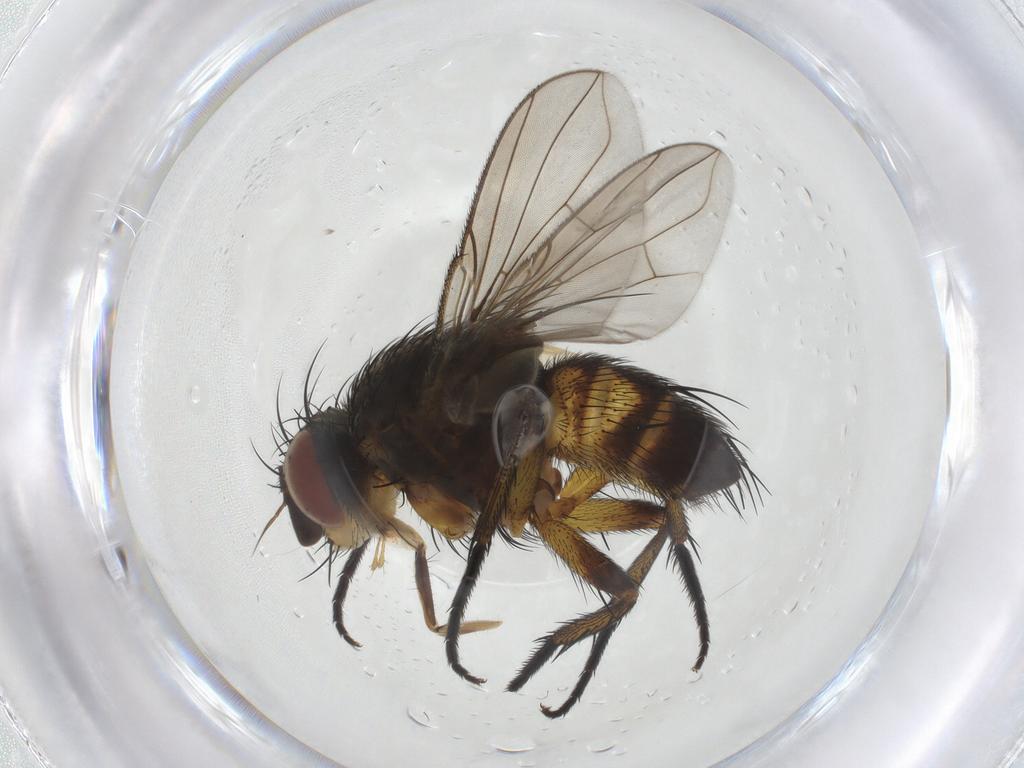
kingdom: Animalia
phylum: Arthropoda
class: Insecta
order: Diptera
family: Tachinidae
